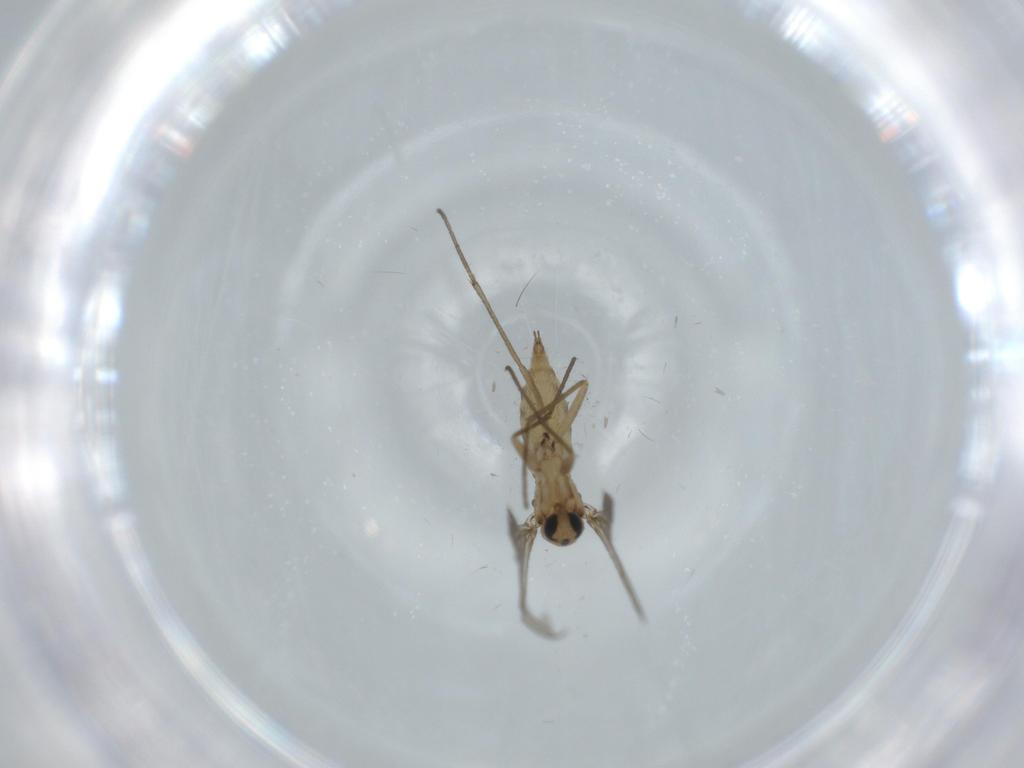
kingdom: Animalia
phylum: Arthropoda
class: Insecta
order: Diptera
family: Sciaridae
